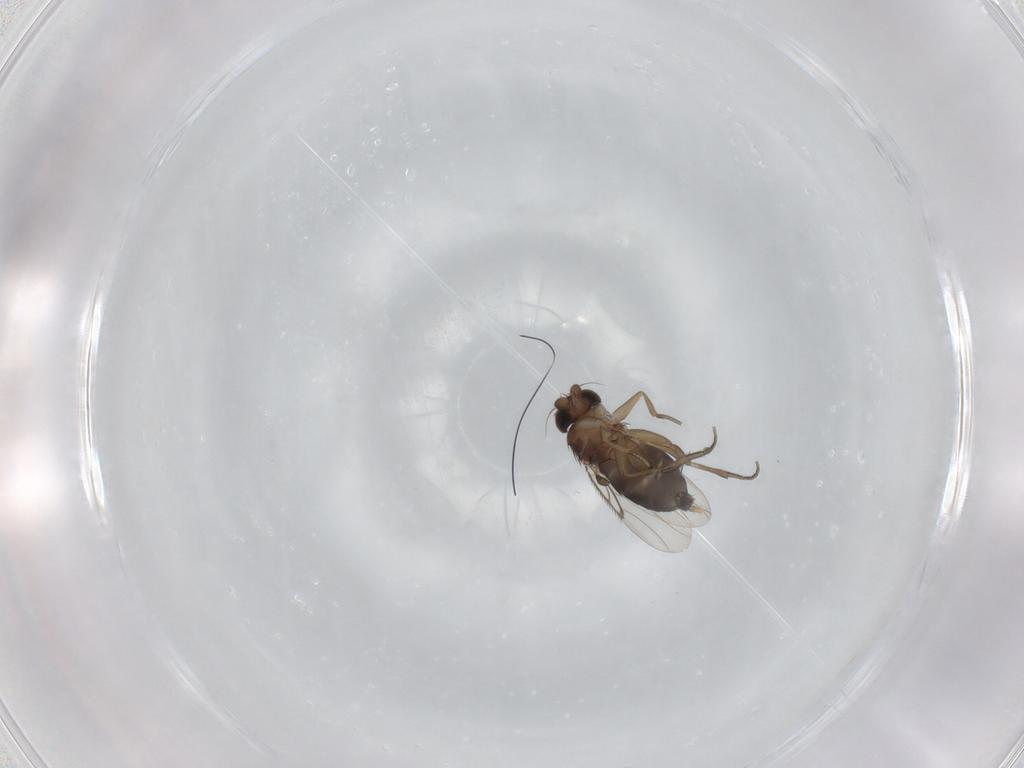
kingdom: Animalia
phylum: Arthropoda
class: Insecta
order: Diptera
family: Phoridae
